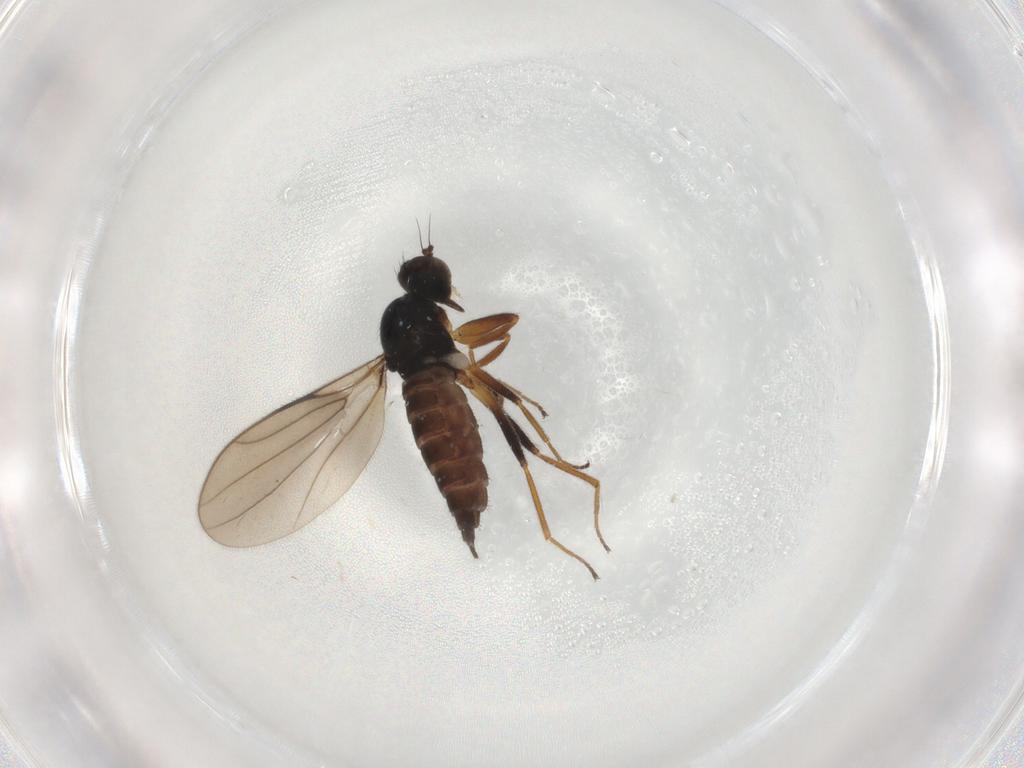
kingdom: Animalia
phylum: Arthropoda
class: Insecta
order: Diptera
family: Hybotidae
